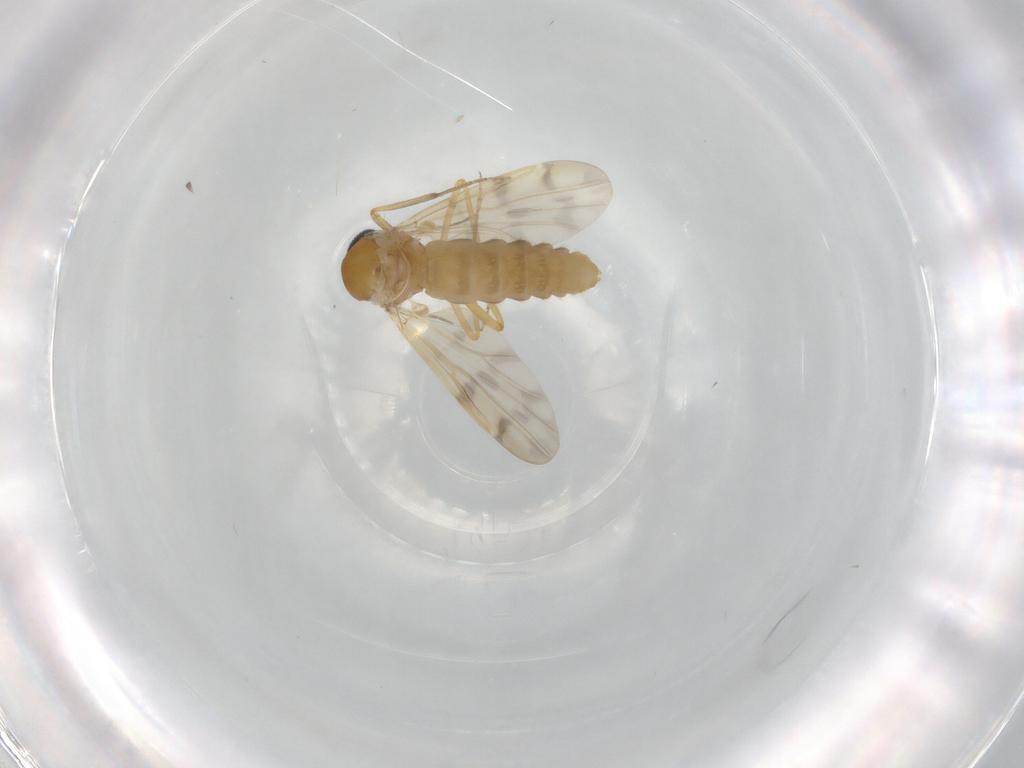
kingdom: Animalia
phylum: Arthropoda
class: Insecta
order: Diptera
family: Ceratopogonidae
